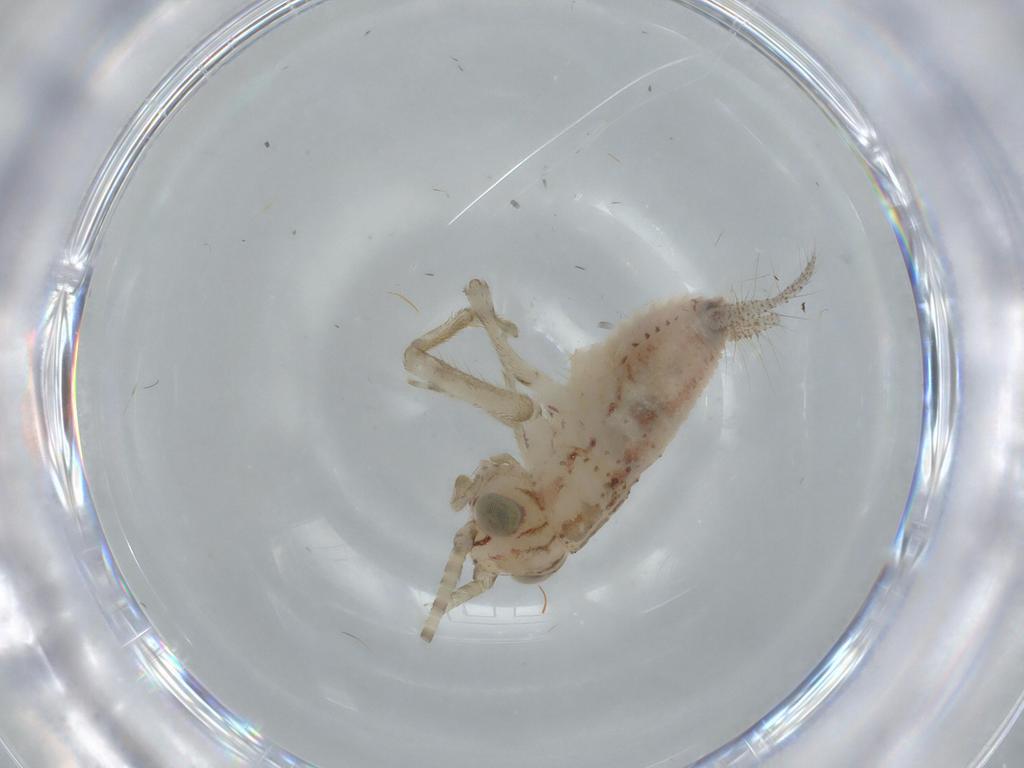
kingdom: Animalia
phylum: Arthropoda
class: Insecta
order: Orthoptera
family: Trigonidiidae
